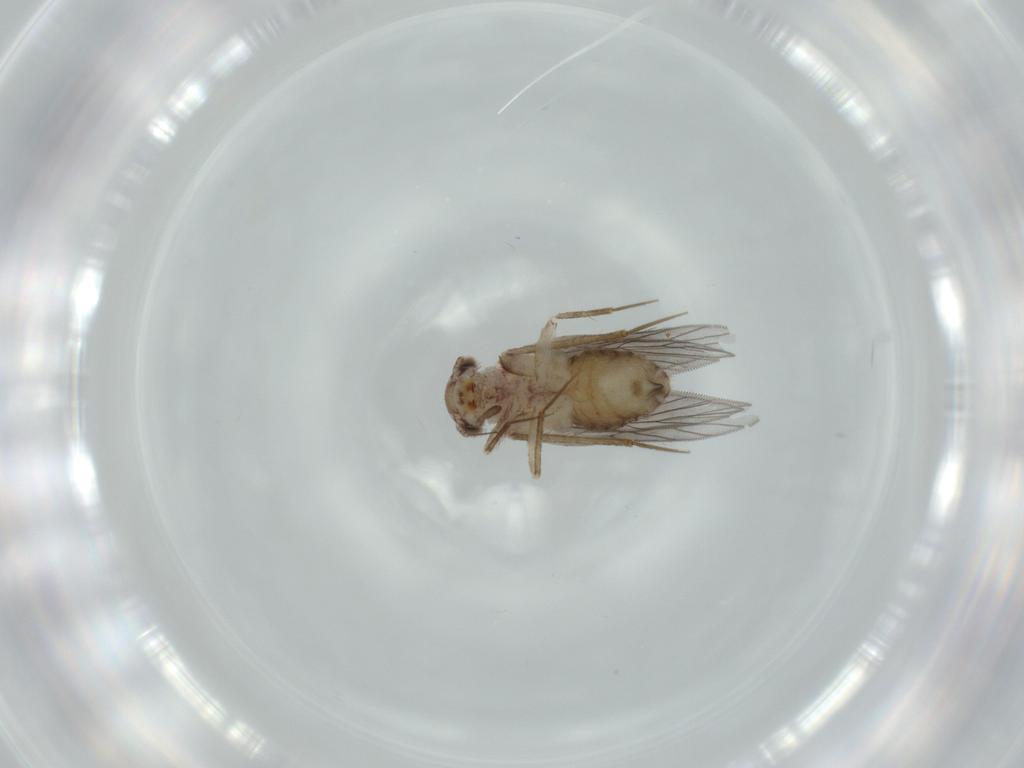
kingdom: Animalia
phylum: Arthropoda
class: Insecta
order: Psocodea
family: Lepidopsocidae
